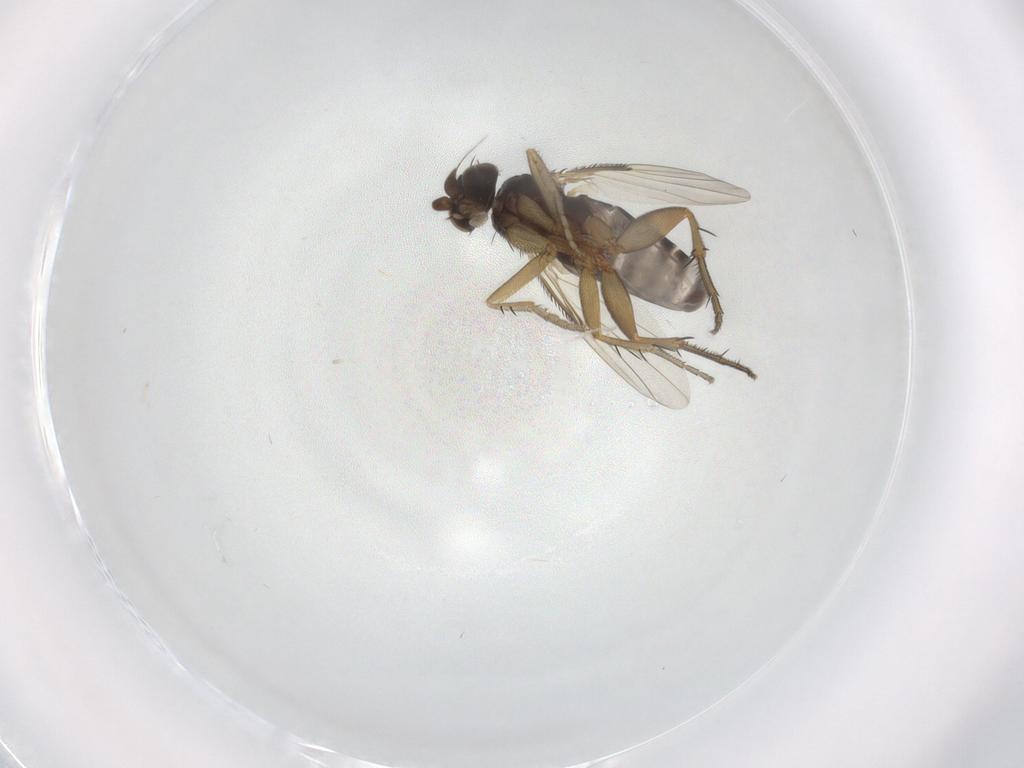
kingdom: Animalia
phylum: Arthropoda
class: Insecta
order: Diptera
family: Phoridae
